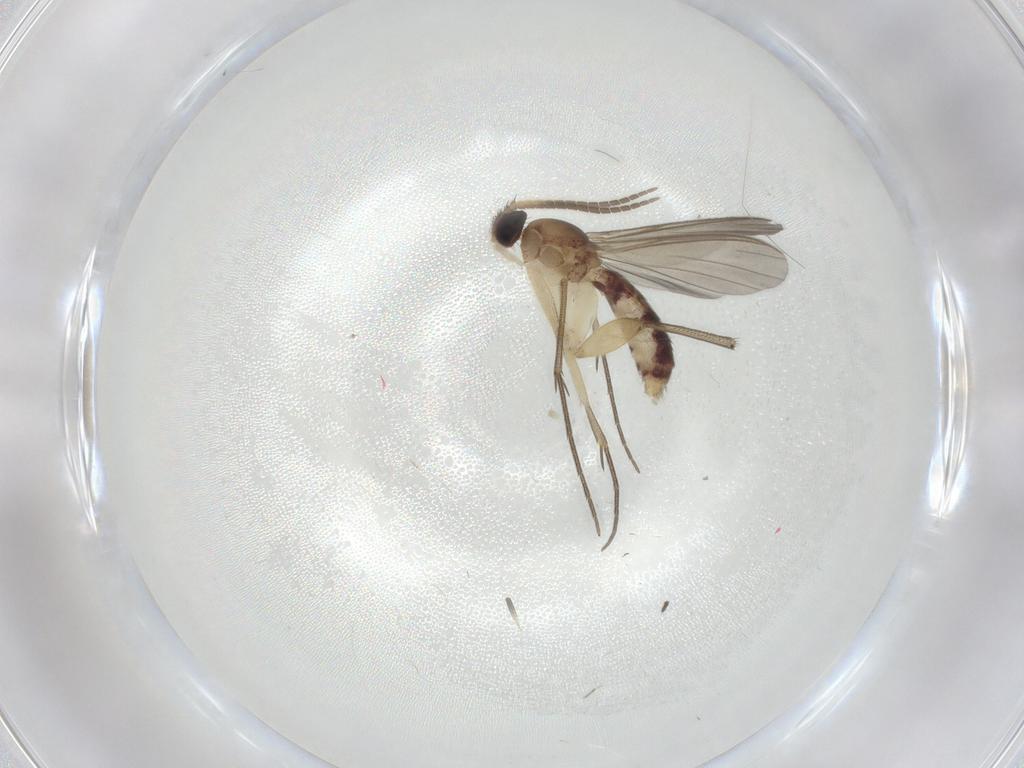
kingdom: Animalia
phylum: Arthropoda
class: Insecta
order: Diptera
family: Mycetophilidae
